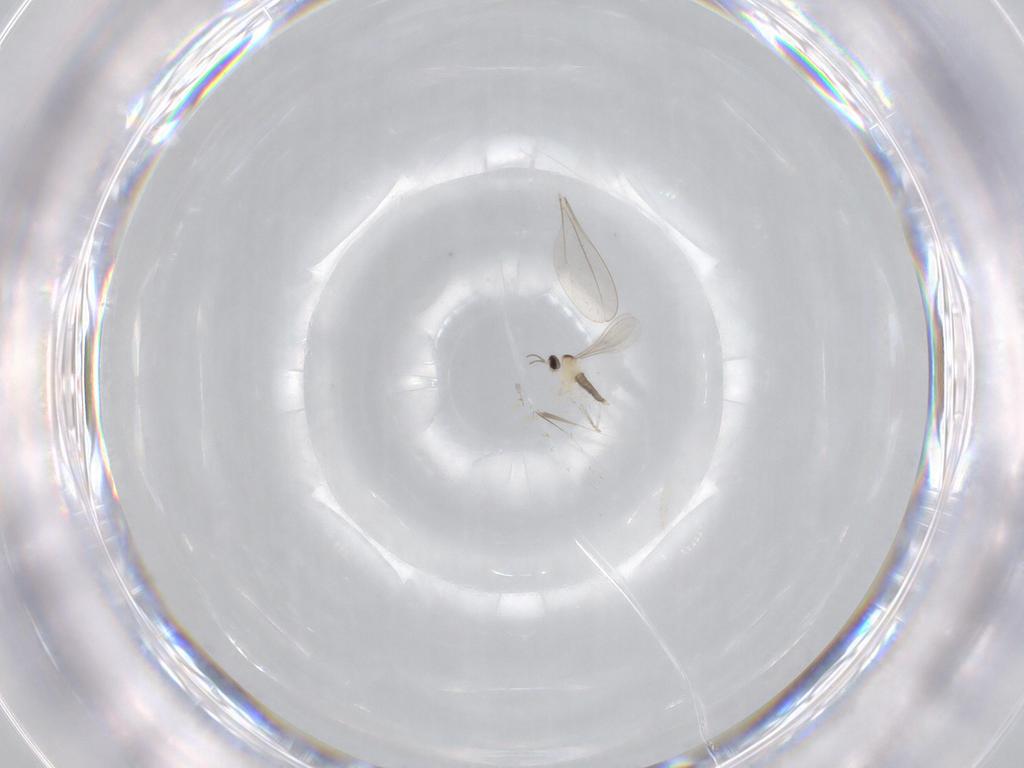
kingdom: Animalia
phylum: Arthropoda
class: Insecta
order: Diptera
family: Cecidomyiidae
